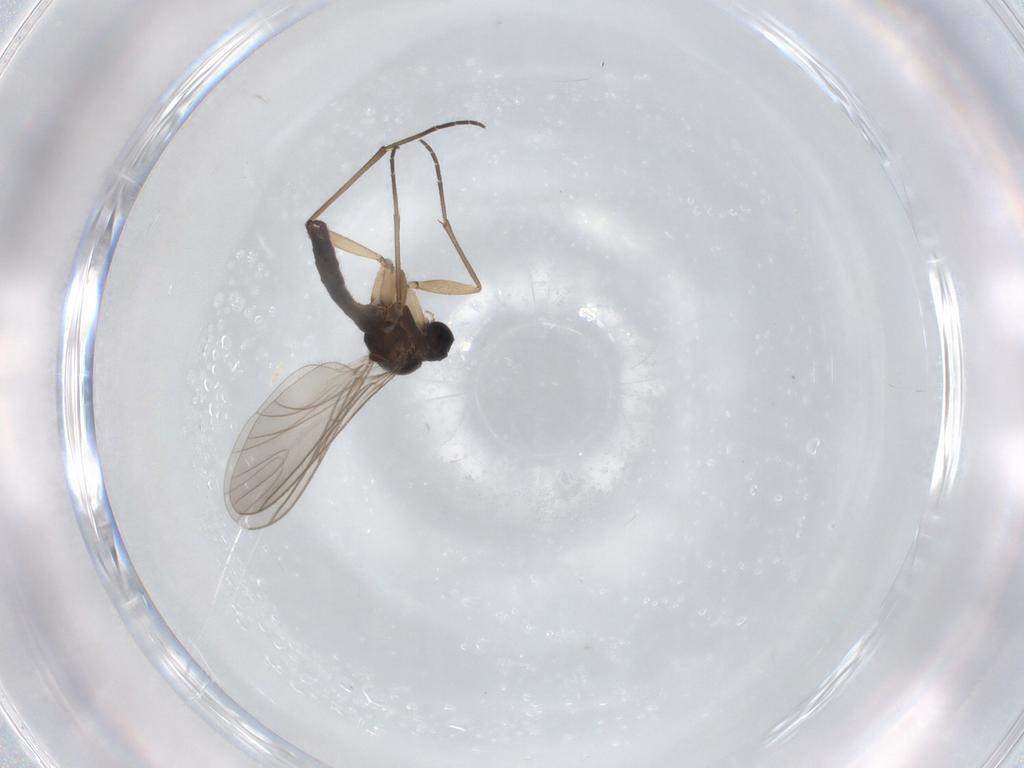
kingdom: Animalia
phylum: Arthropoda
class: Insecta
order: Diptera
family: Sciaridae
